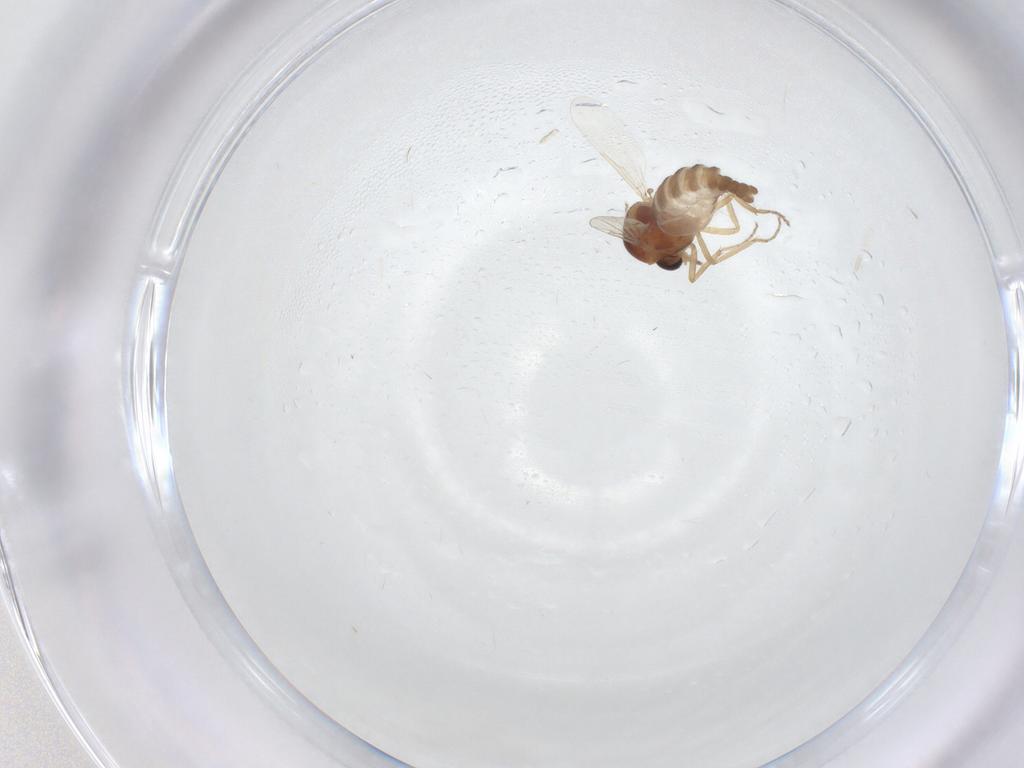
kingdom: Animalia
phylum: Arthropoda
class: Insecta
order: Diptera
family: Ceratopogonidae
